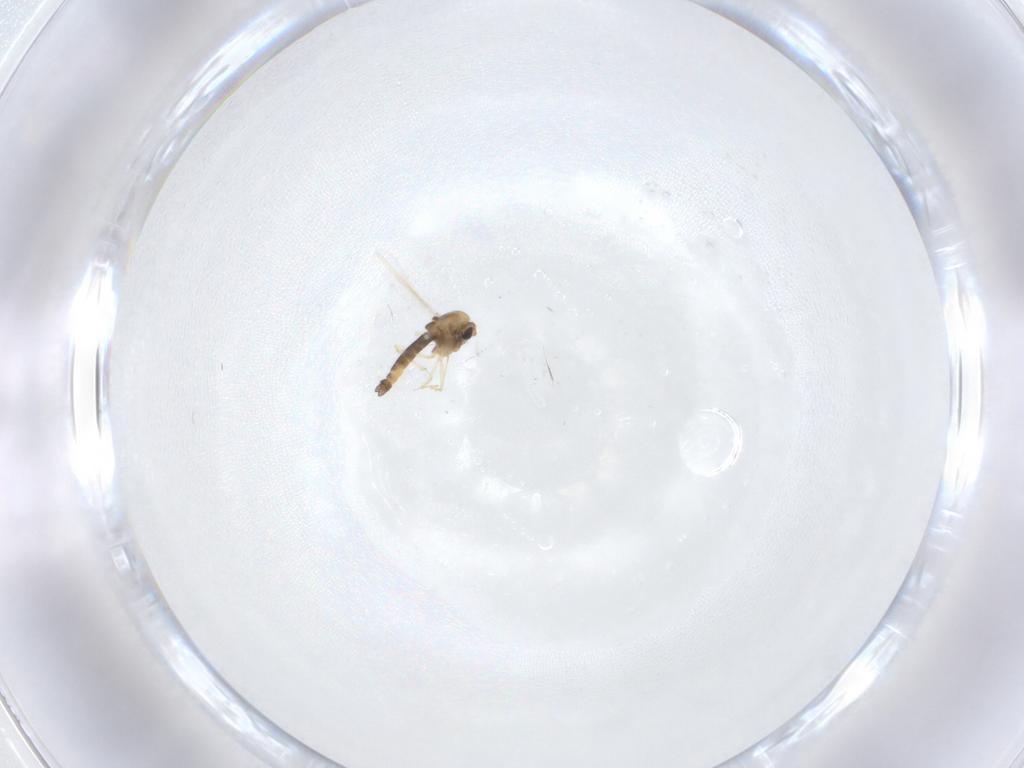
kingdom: Animalia
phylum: Arthropoda
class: Insecta
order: Diptera
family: Chironomidae
